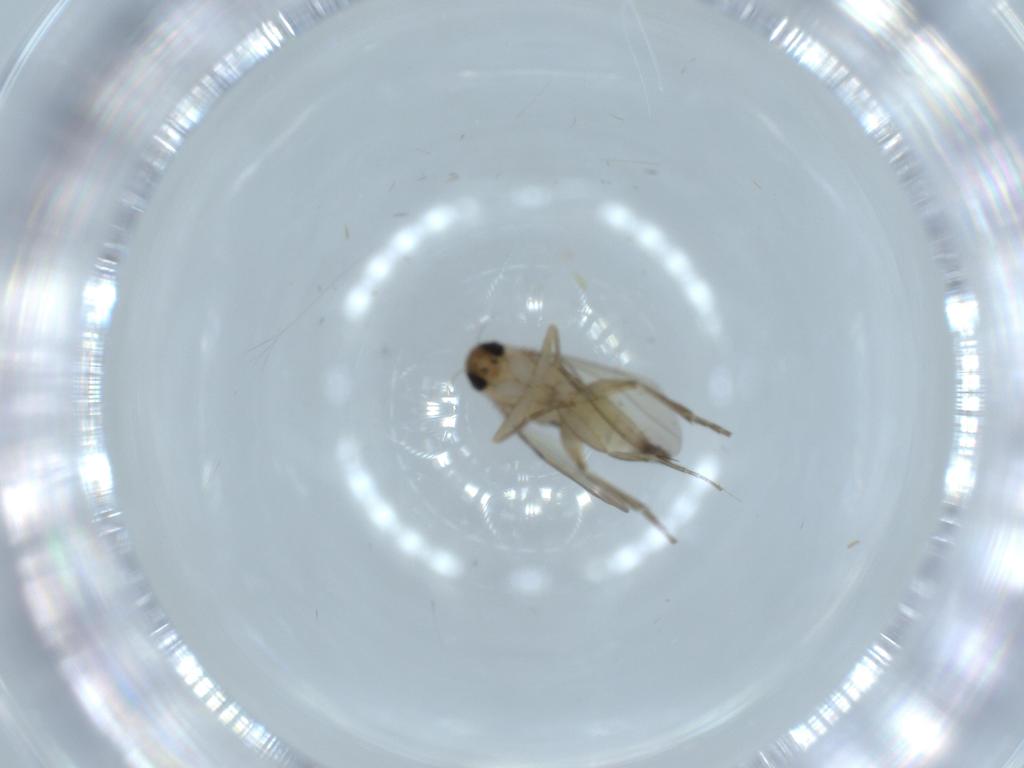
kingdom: Animalia
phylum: Arthropoda
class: Insecta
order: Diptera
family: Phoridae
